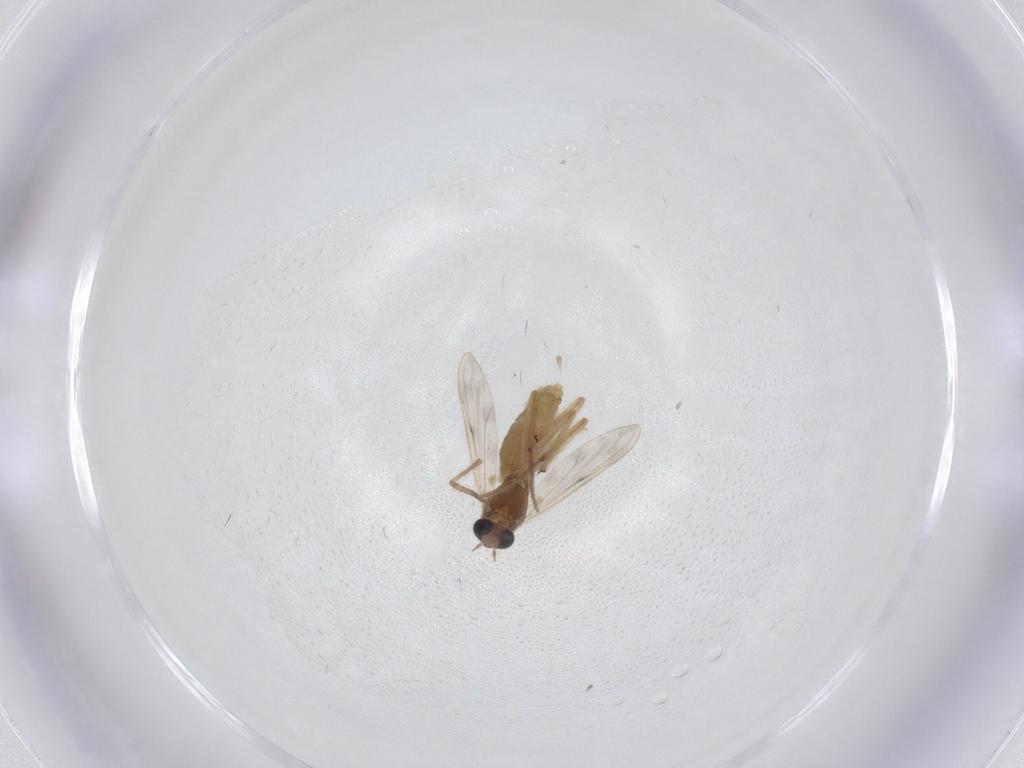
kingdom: Animalia
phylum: Arthropoda
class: Insecta
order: Diptera
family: Chironomidae
